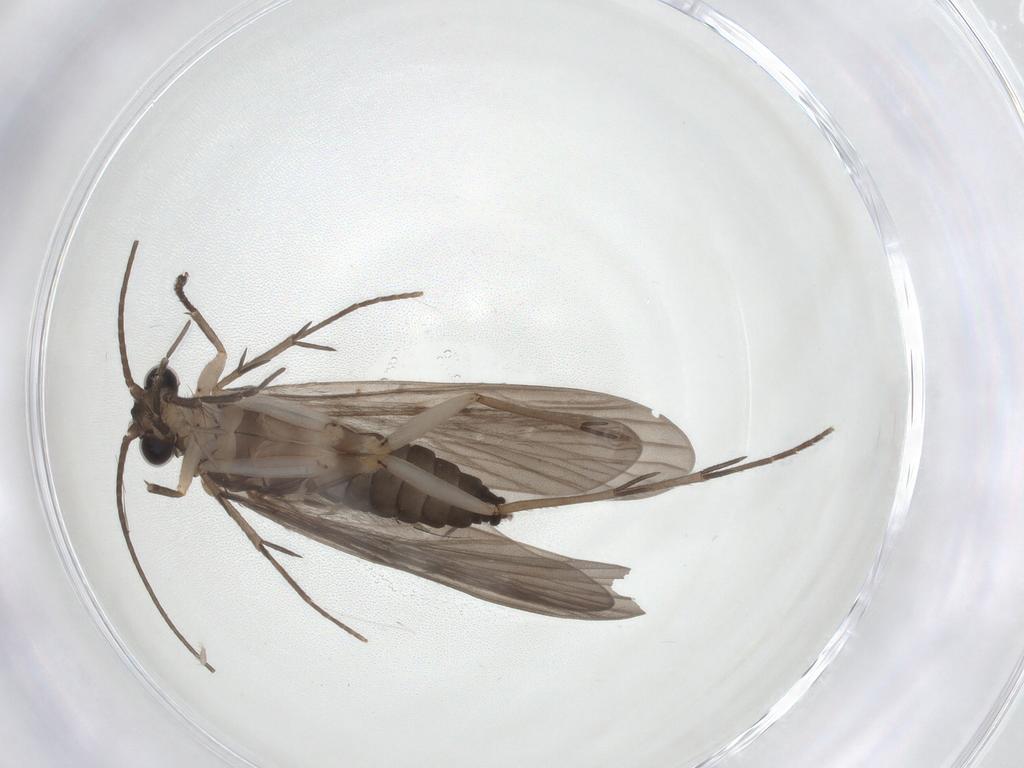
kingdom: Animalia
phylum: Arthropoda
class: Insecta
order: Trichoptera
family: Philopotamidae
